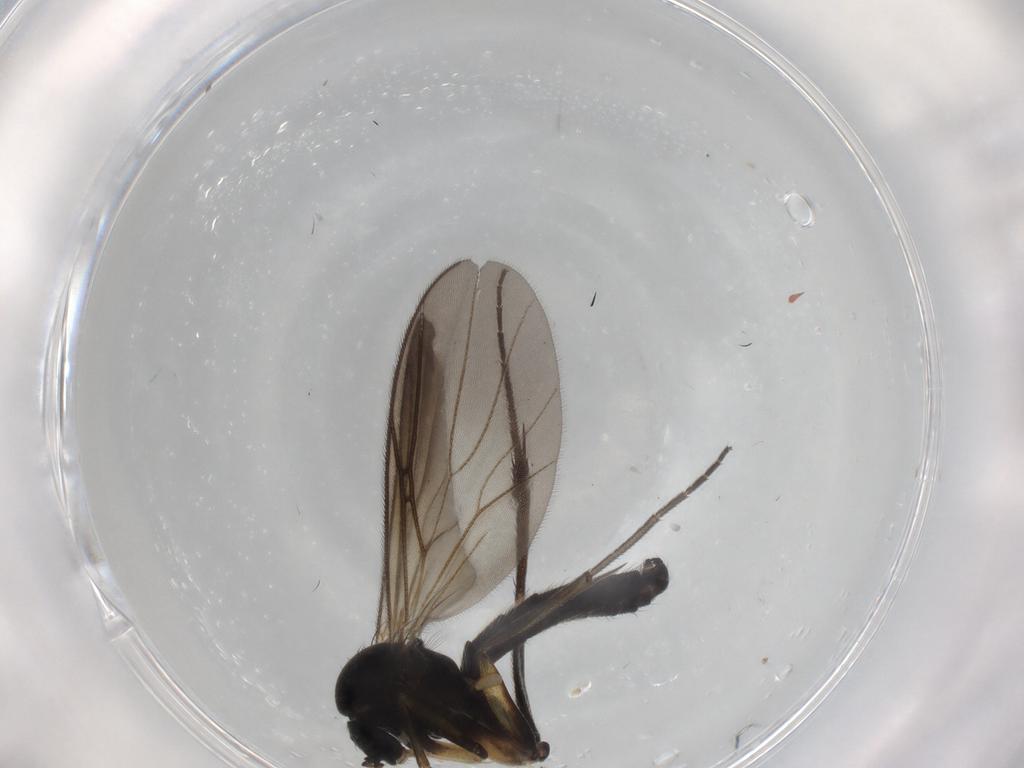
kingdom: Animalia
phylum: Arthropoda
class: Insecta
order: Diptera
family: Mycetophilidae
